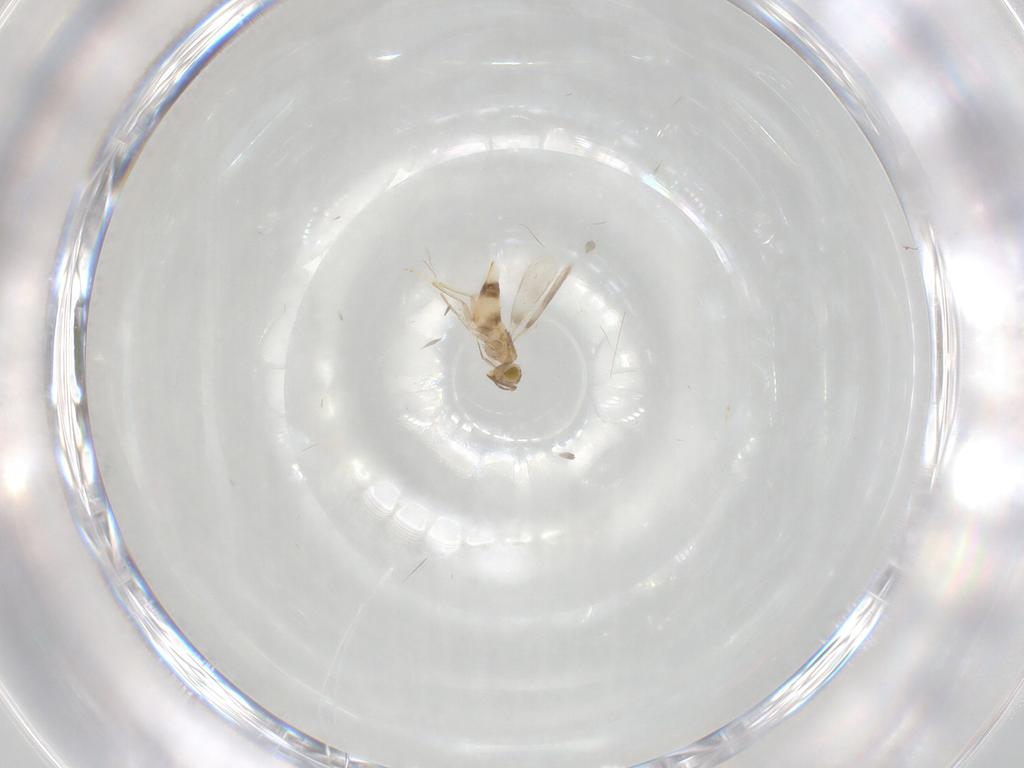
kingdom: Animalia
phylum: Arthropoda
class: Insecta
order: Hymenoptera
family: Aphelinidae
